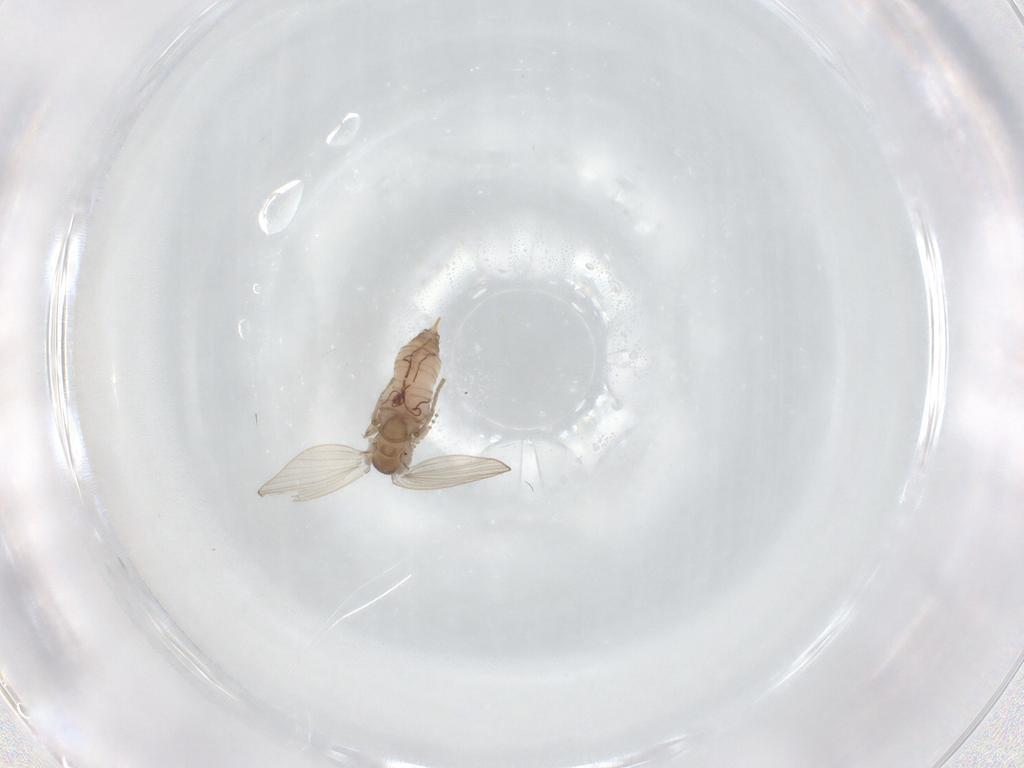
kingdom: Animalia
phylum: Arthropoda
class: Insecta
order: Diptera
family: Psychodidae
